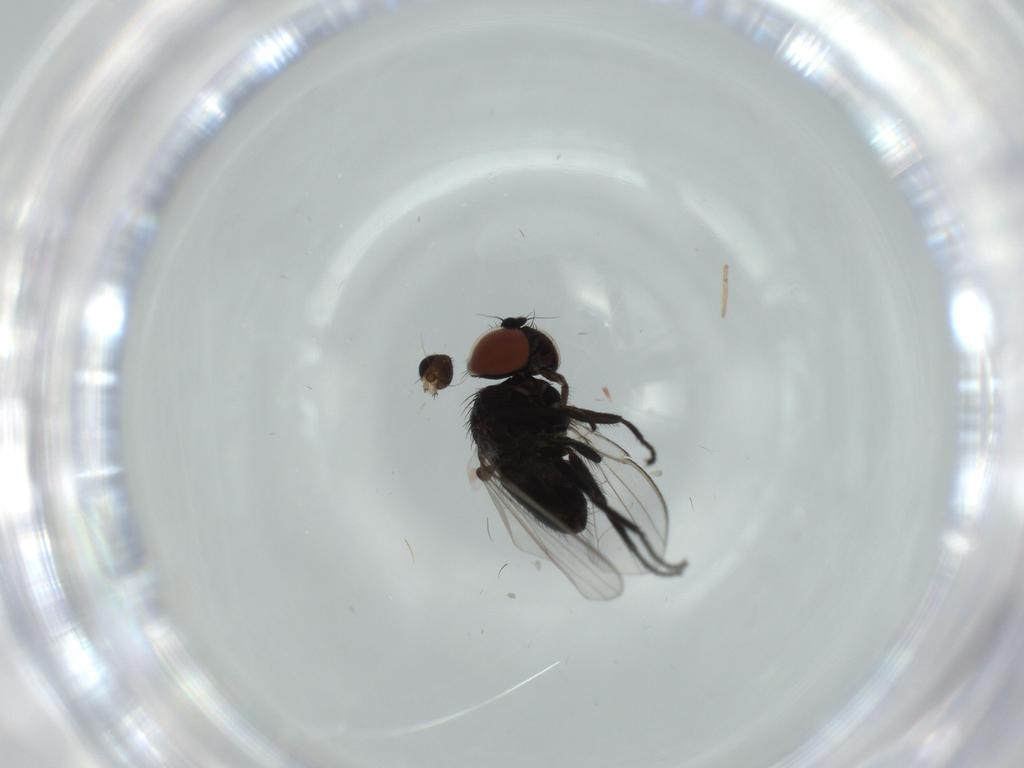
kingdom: Animalia
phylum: Arthropoda
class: Insecta
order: Diptera
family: Milichiidae
